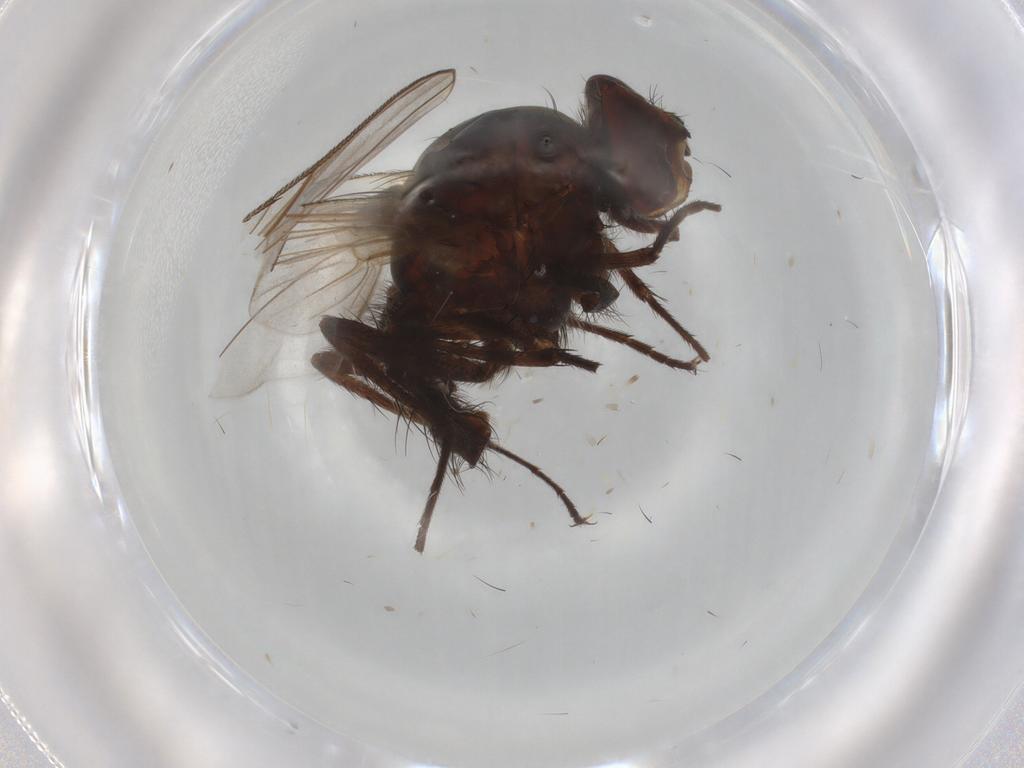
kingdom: Animalia
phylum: Arthropoda
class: Insecta
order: Diptera
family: Anthomyiidae
